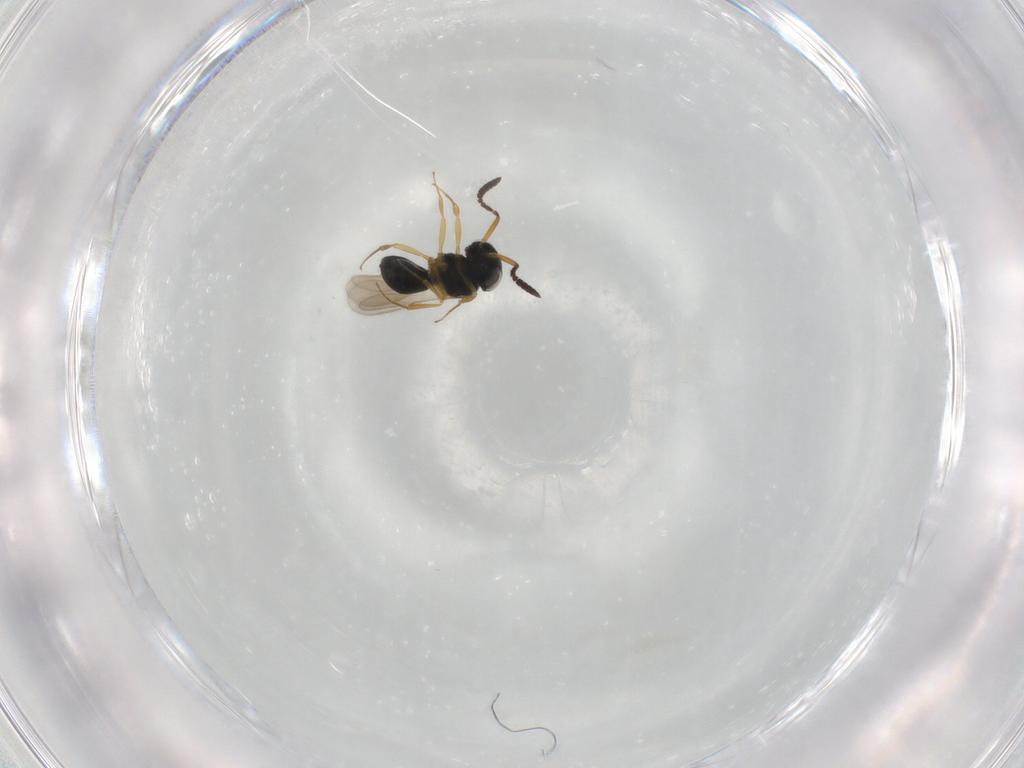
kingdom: Animalia
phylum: Arthropoda
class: Insecta
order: Hymenoptera
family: Scelionidae
